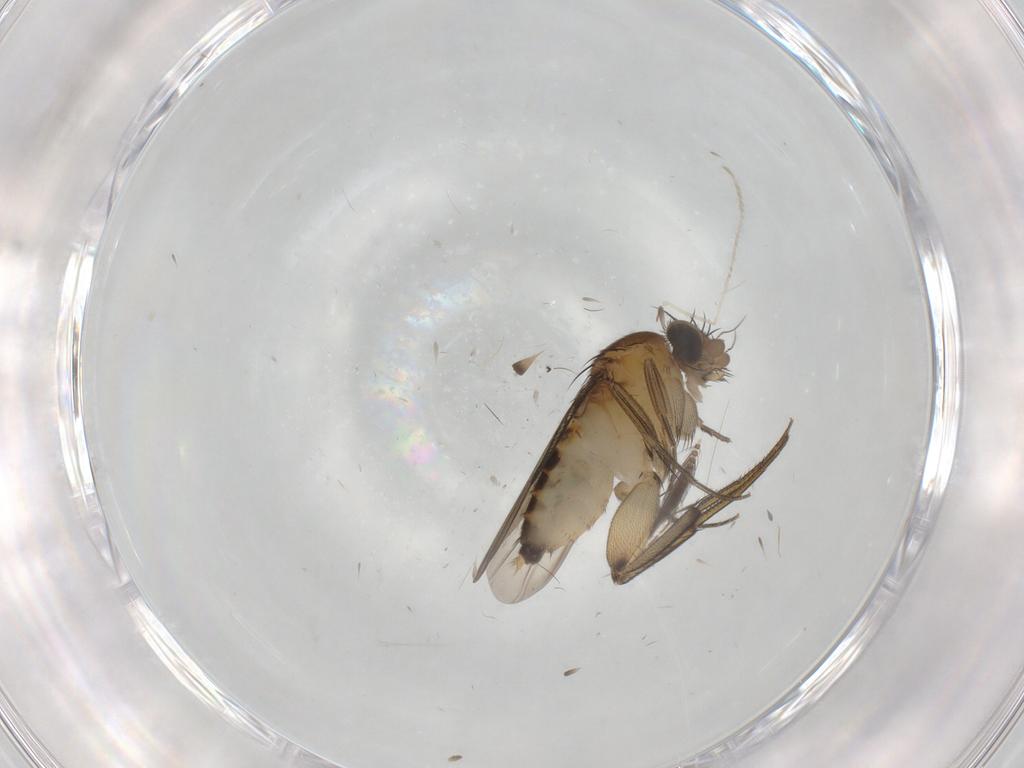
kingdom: Animalia
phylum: Arthropoda
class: Insecta
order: Diptera
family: Phoridae
